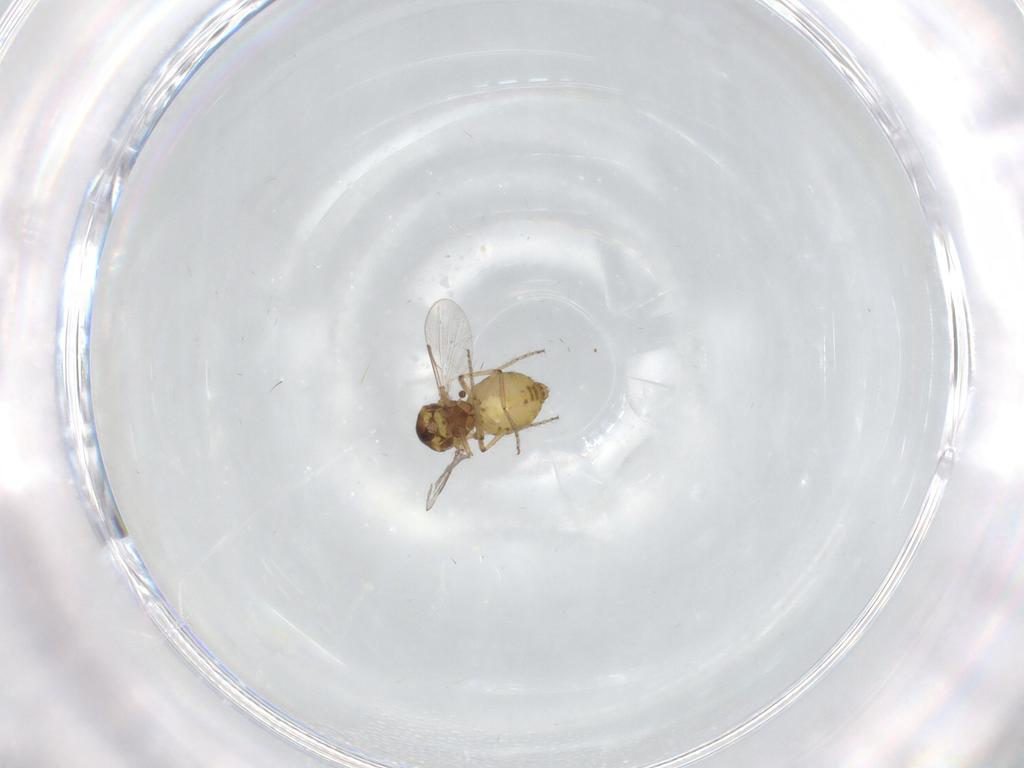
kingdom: Animalia
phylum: Arthropoda
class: Insecta
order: Diptera
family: Ceratopogonidae
